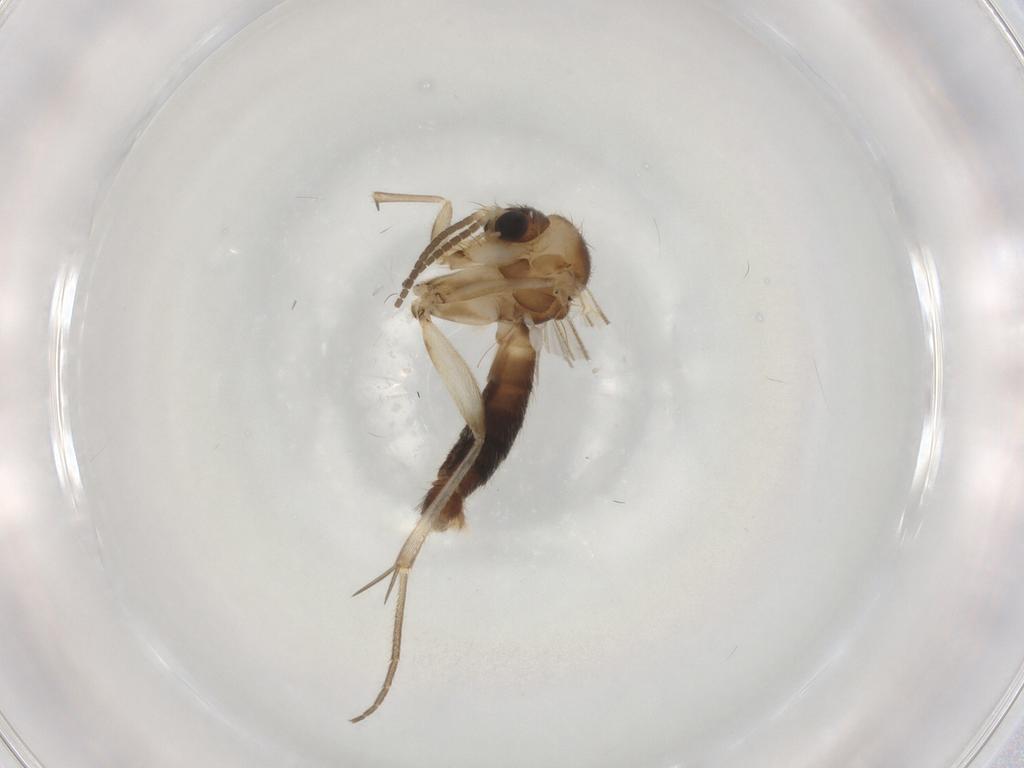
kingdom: Animalia
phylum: Arthropoda
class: Insecta
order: Diptera
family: Mycetophilidae
